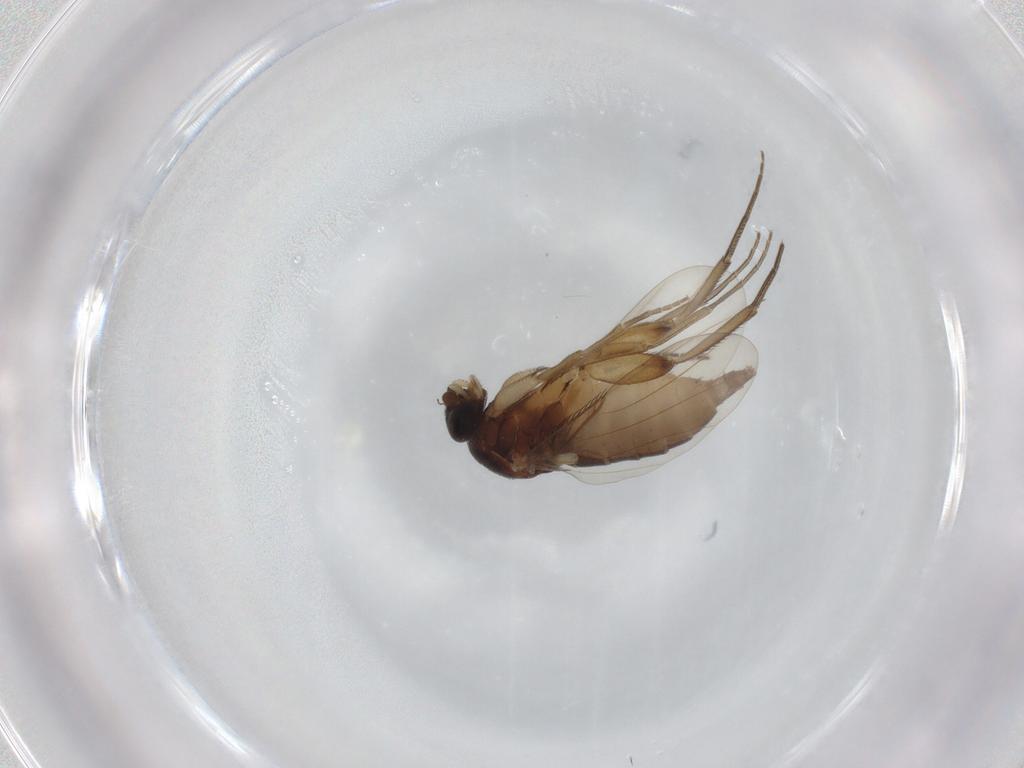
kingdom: Animalia
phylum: Arthropoda
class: Insecta
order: Diptera
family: Phoridae
